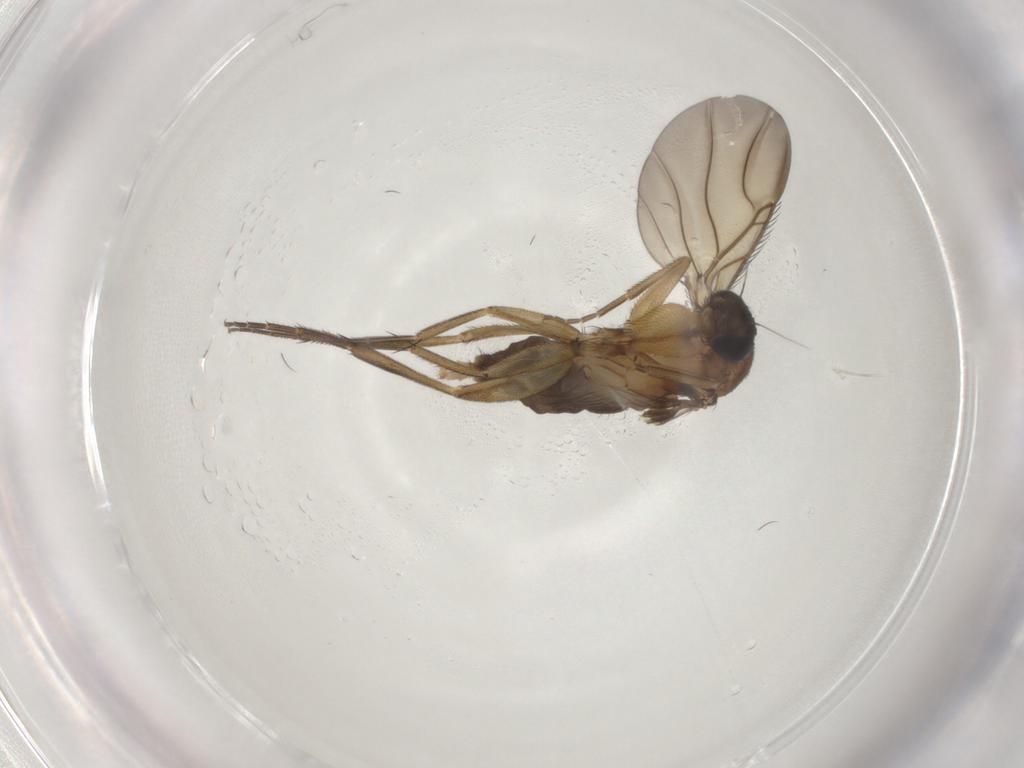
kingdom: Animalia
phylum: Arthropoda
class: Insecta
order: Diptera
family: Phoridae
